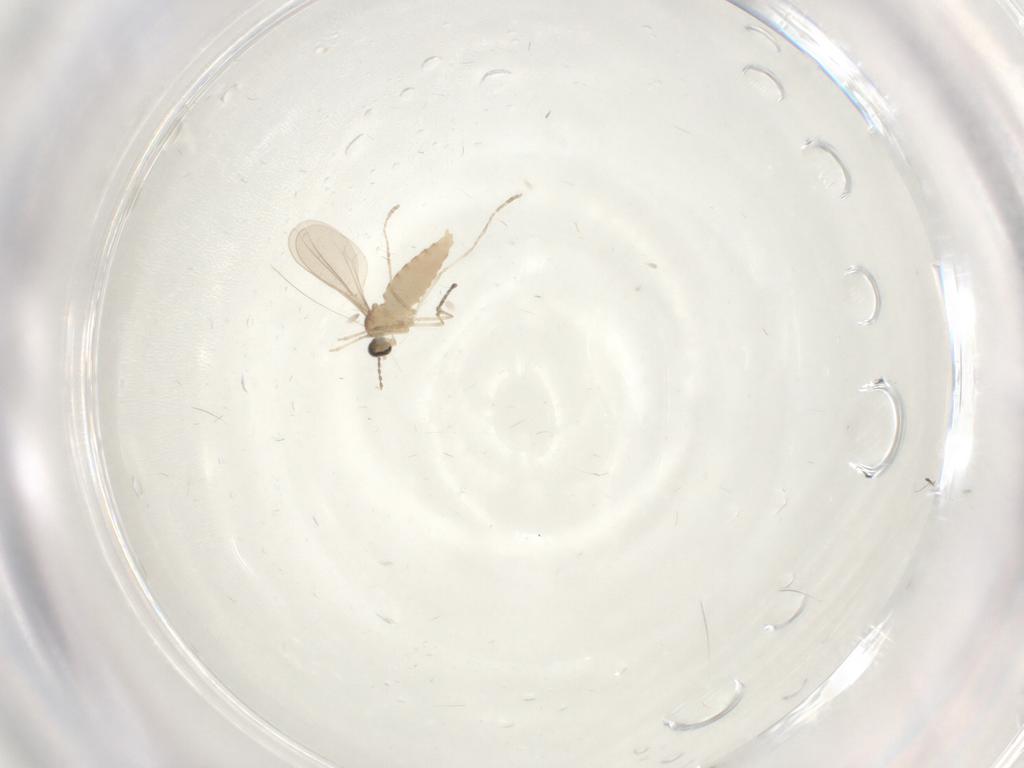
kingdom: Animalia
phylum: Arthropoda
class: Insecta
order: Diptera
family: Cecidomyiidae
